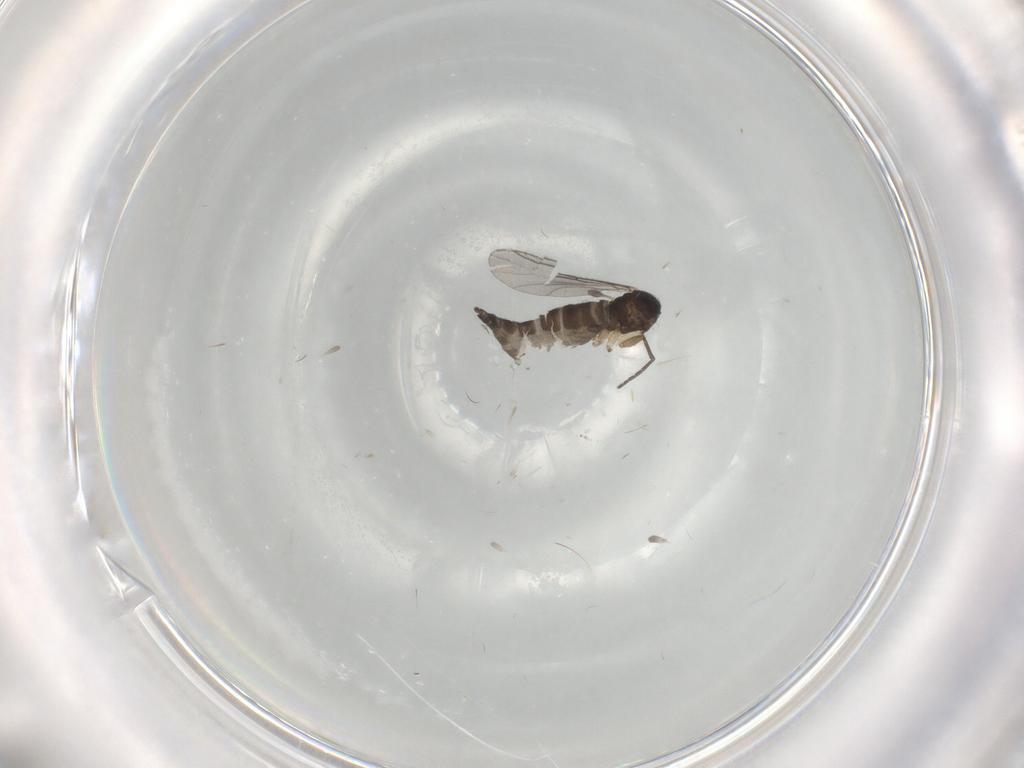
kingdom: Animalia
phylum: Arthropoda
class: Insecta
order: Diptera
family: Sciaridae
